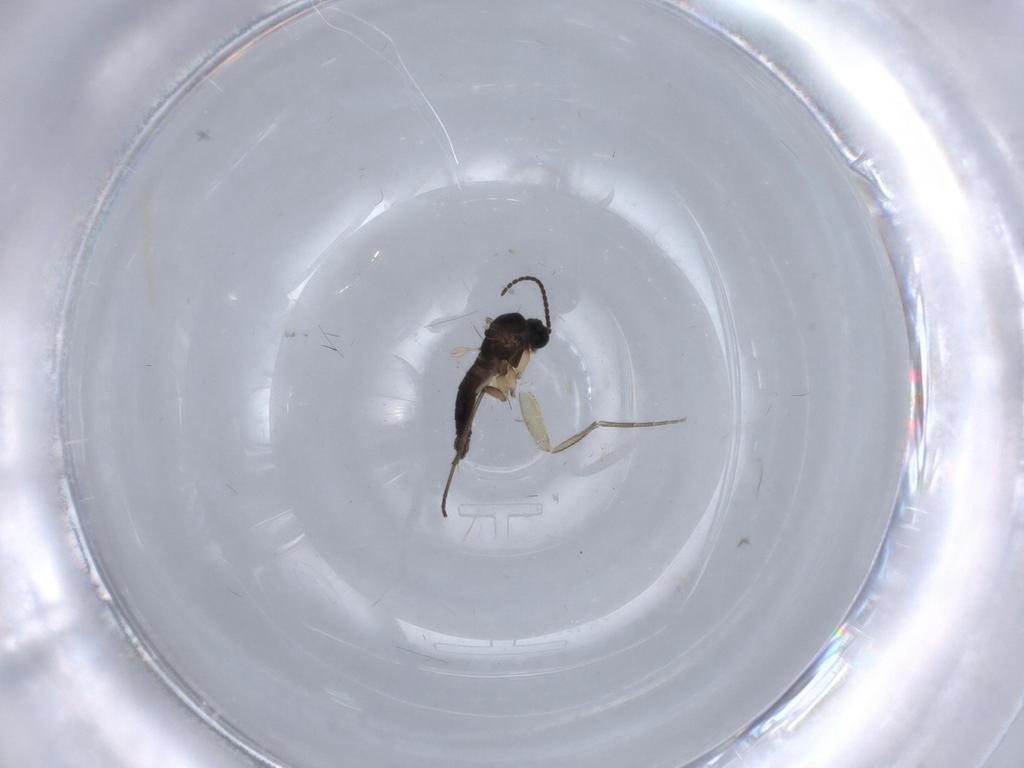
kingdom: Animalia
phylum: Arthropoda
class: Insecta
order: Diptera
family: Sciaridae
